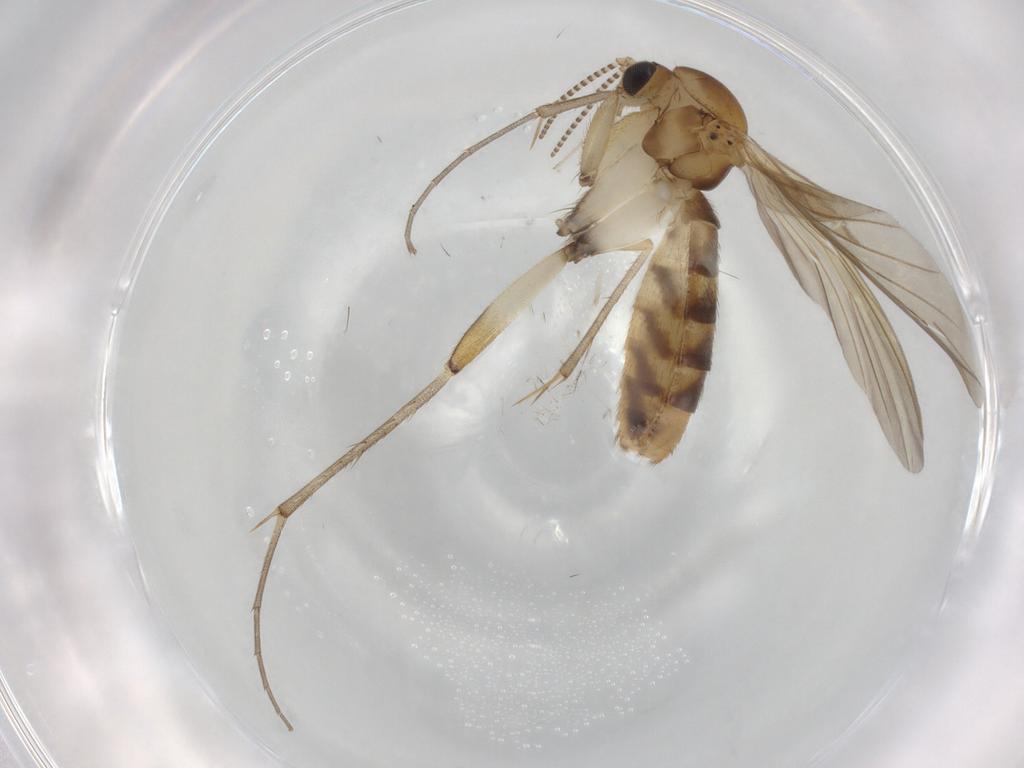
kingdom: Animalia
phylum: Arthropoda
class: Insecta
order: Diptera
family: Mycetophilidae
